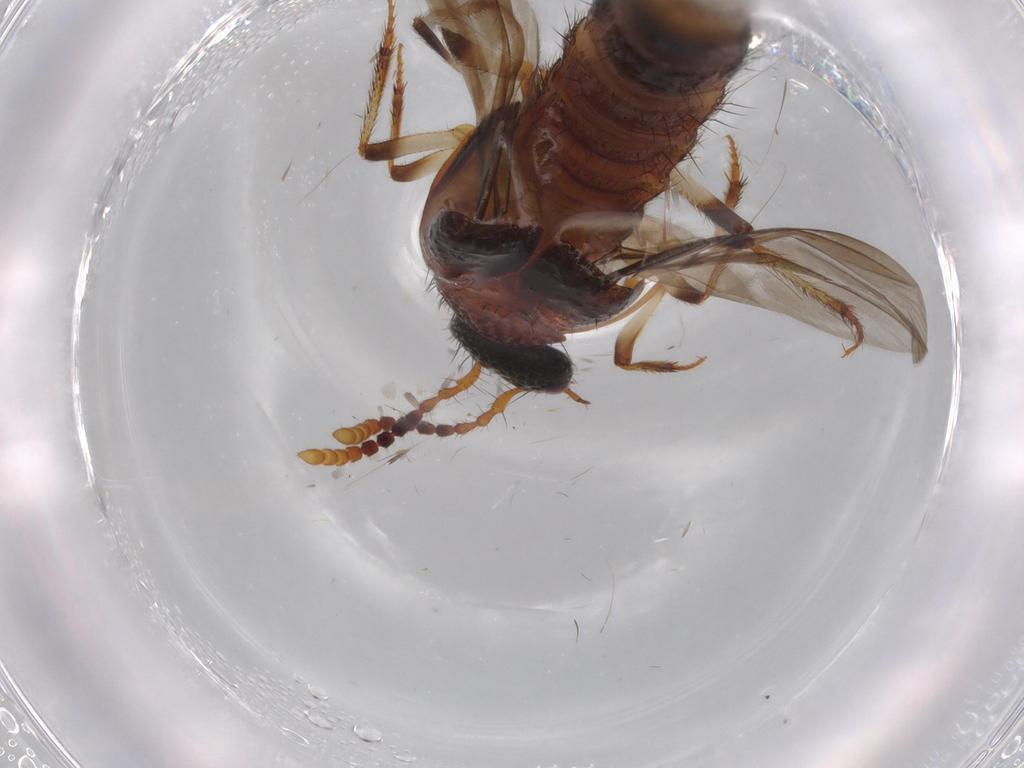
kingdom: Animalia
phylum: Arthropoda
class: Insecta
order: Coleoptera
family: Staphylinidae
